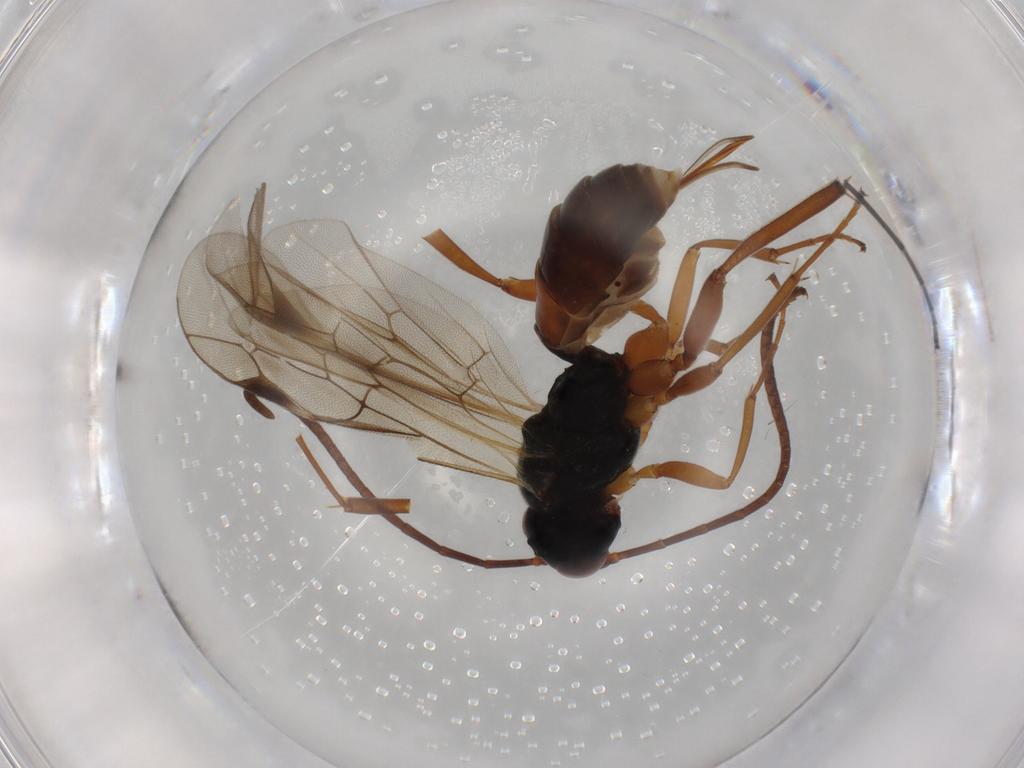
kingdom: Animalia
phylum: Arthropoda
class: Insecta
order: Hymenoptera
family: Ichneumonidae
